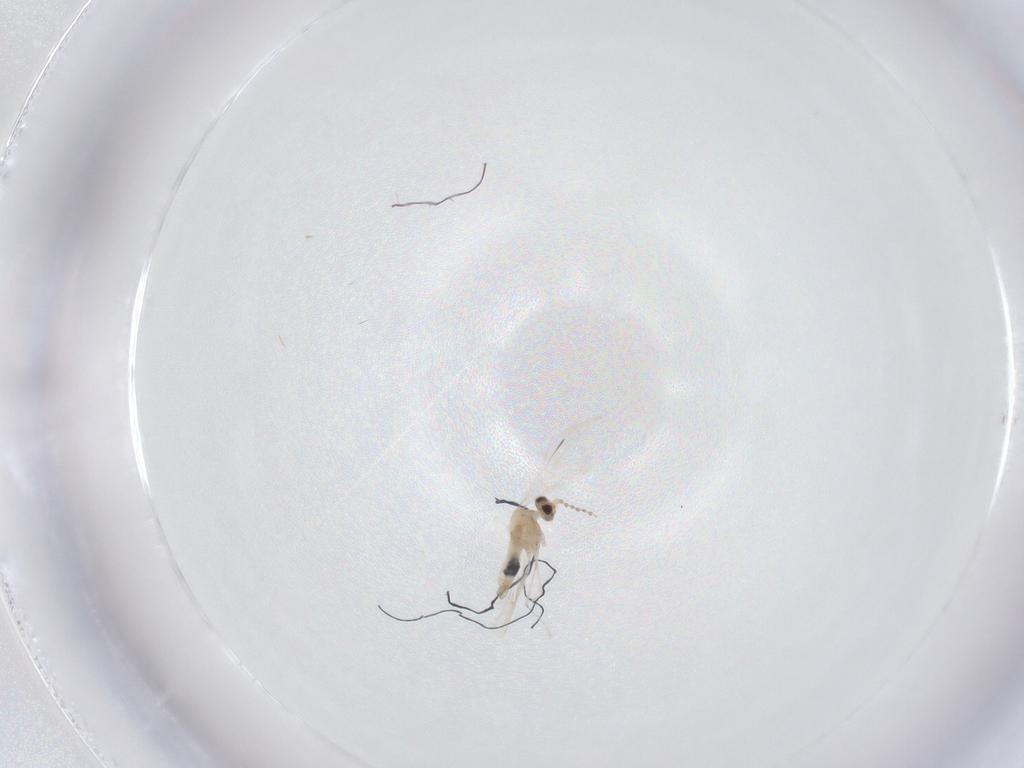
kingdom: Animalia
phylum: Arthropoda
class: Insecta
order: Diptera
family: Cecidomyiidae
